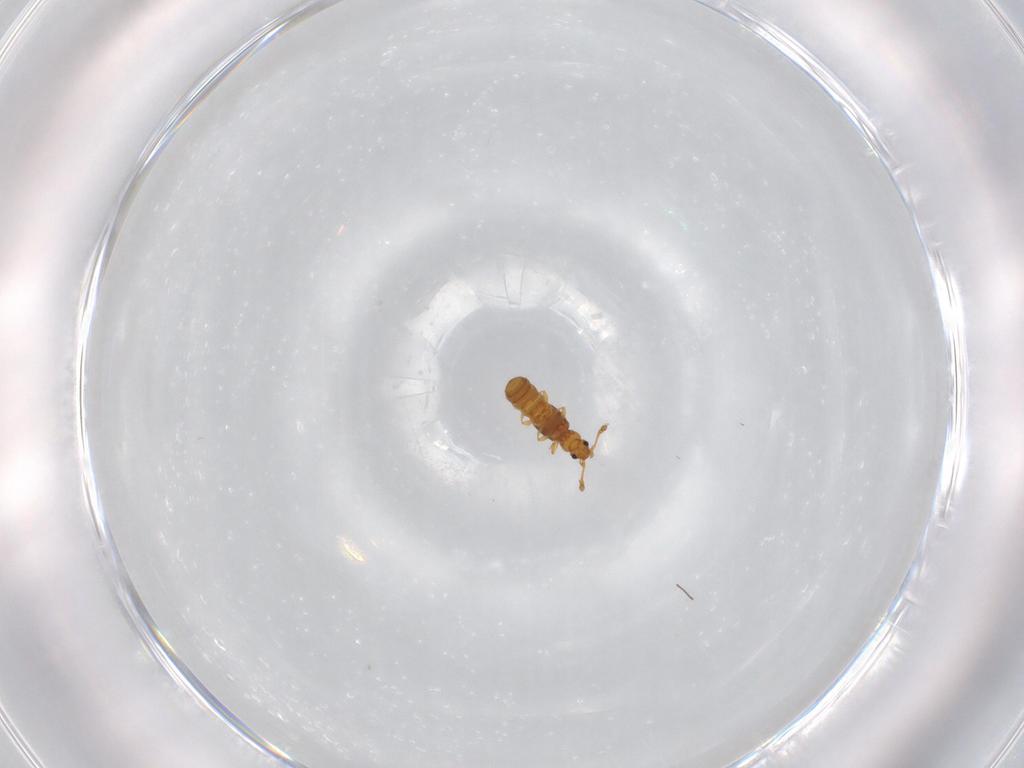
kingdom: Animalia
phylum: Arthropoda
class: Insecta
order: Coleoptera
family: Staphylinidae
